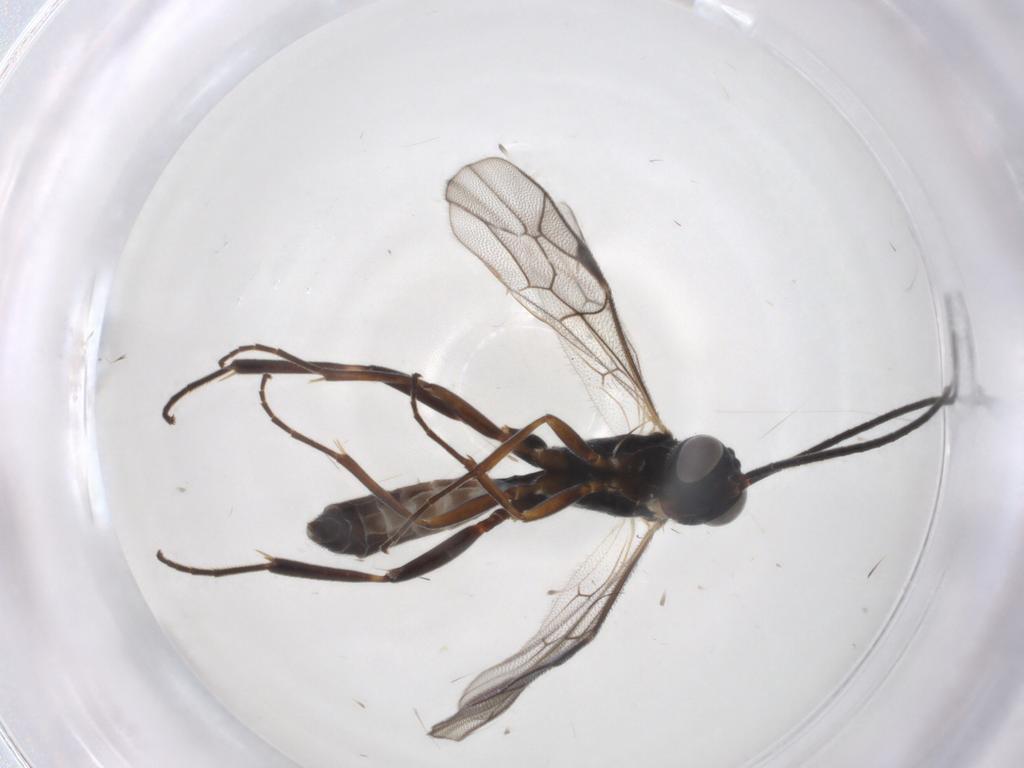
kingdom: Animalia
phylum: Arthropoda
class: Insecta
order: Hymenoptera
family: Ichneumonidae
